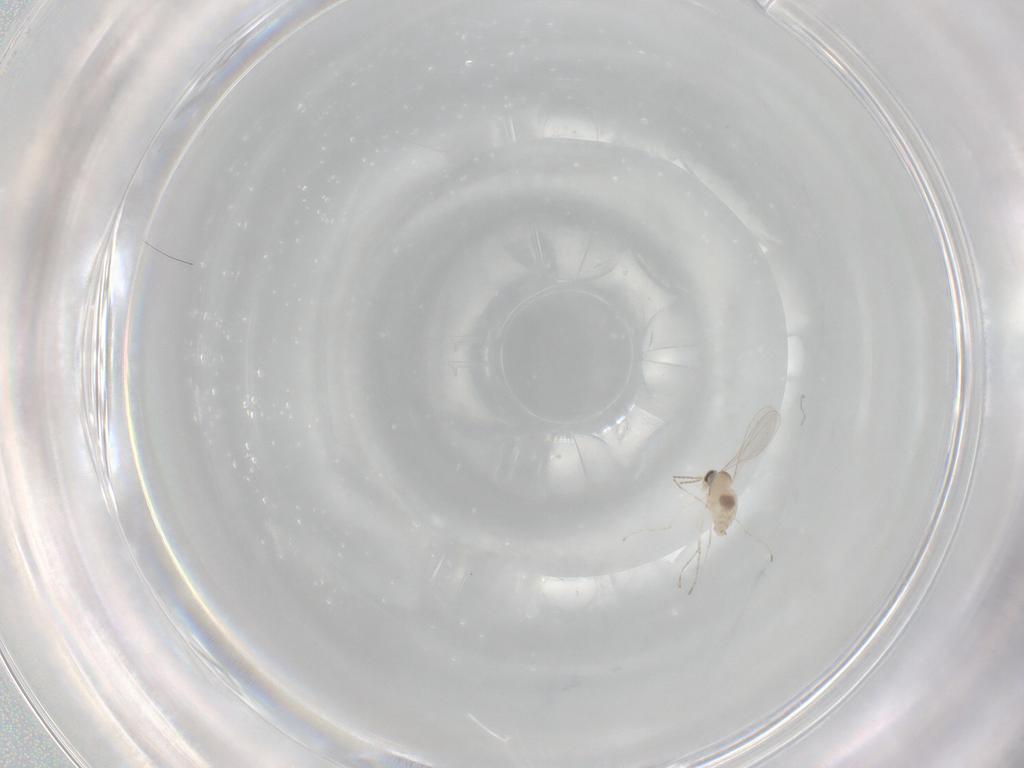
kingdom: Animalia
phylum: Arthropoda
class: Insecta
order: Diptera
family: Cecidomyiidae
